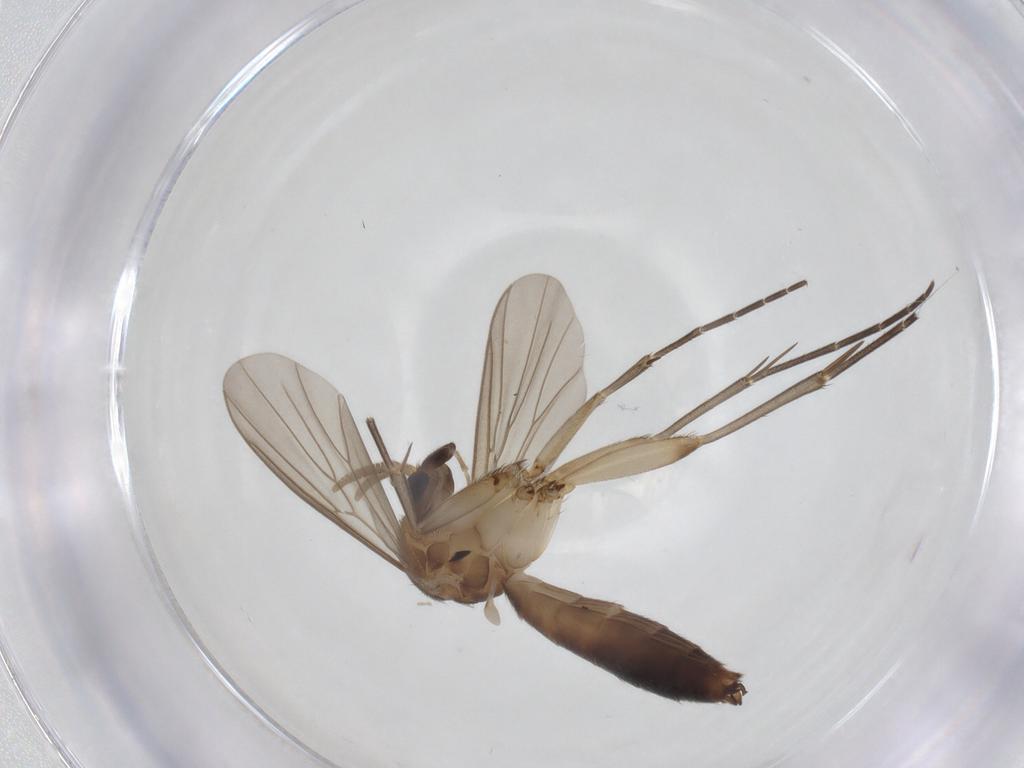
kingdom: Animalia
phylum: Arthropoda
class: Insecta
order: Diptera
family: Mycetophilidae
